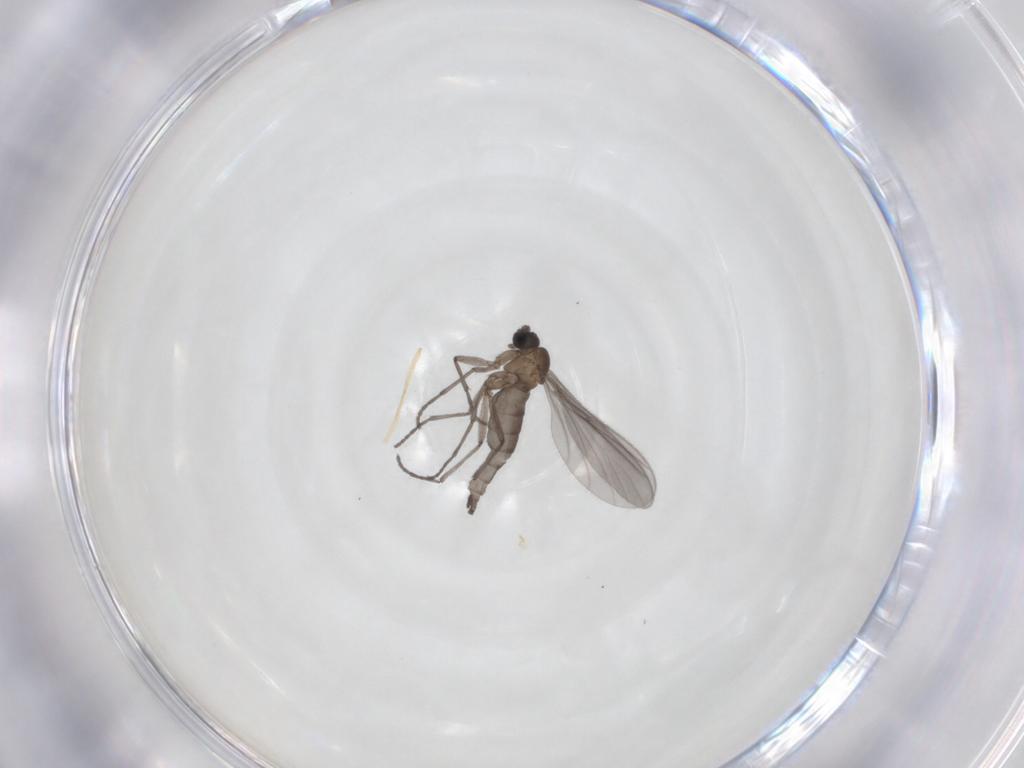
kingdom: Animalia
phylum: Arthropoda
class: Insecta
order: Diptera
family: Sciaridae
